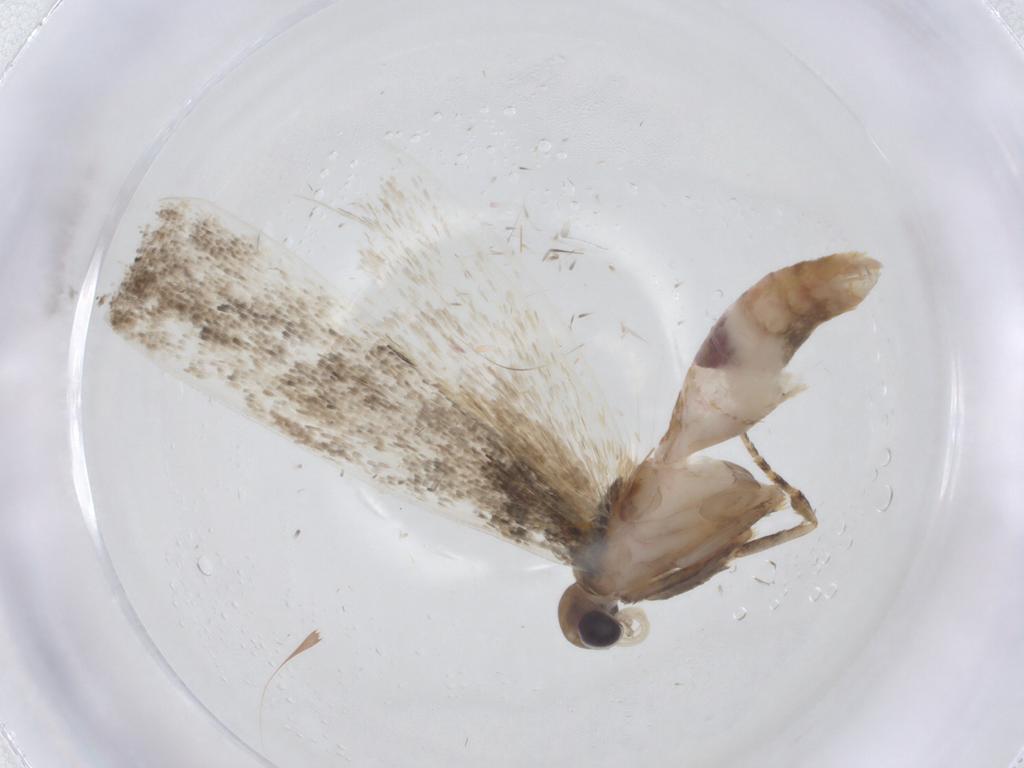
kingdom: Animalia
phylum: Arthropoda
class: Insecta
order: Lepidoptera
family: Gelechiidae
